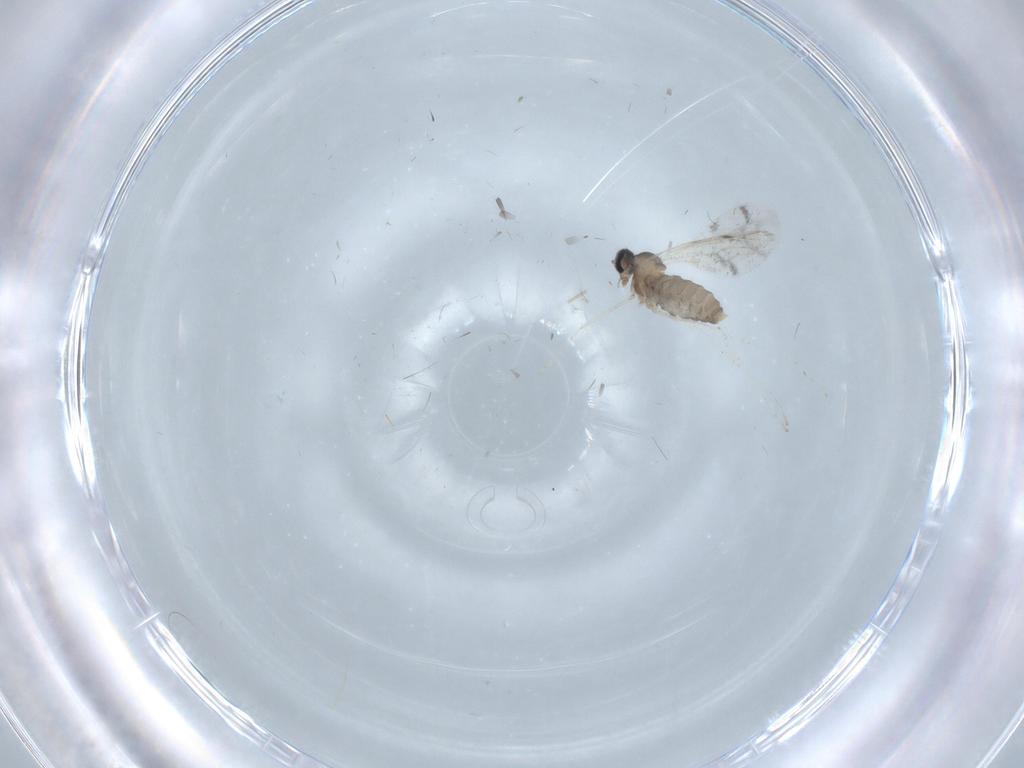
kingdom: Animalia
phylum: Arthropoda
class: Insecta
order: Diptera
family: Cecidomyiidae
